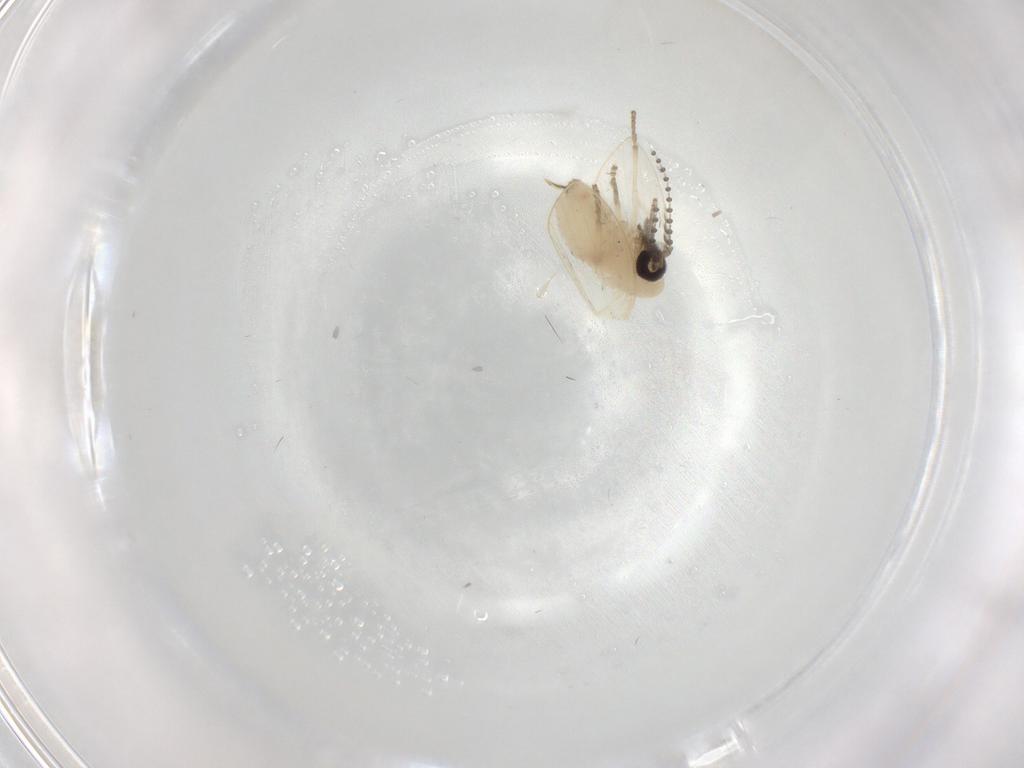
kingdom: Animalia
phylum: Arthropoda
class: Insecta
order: Diptera
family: Psychodidae
